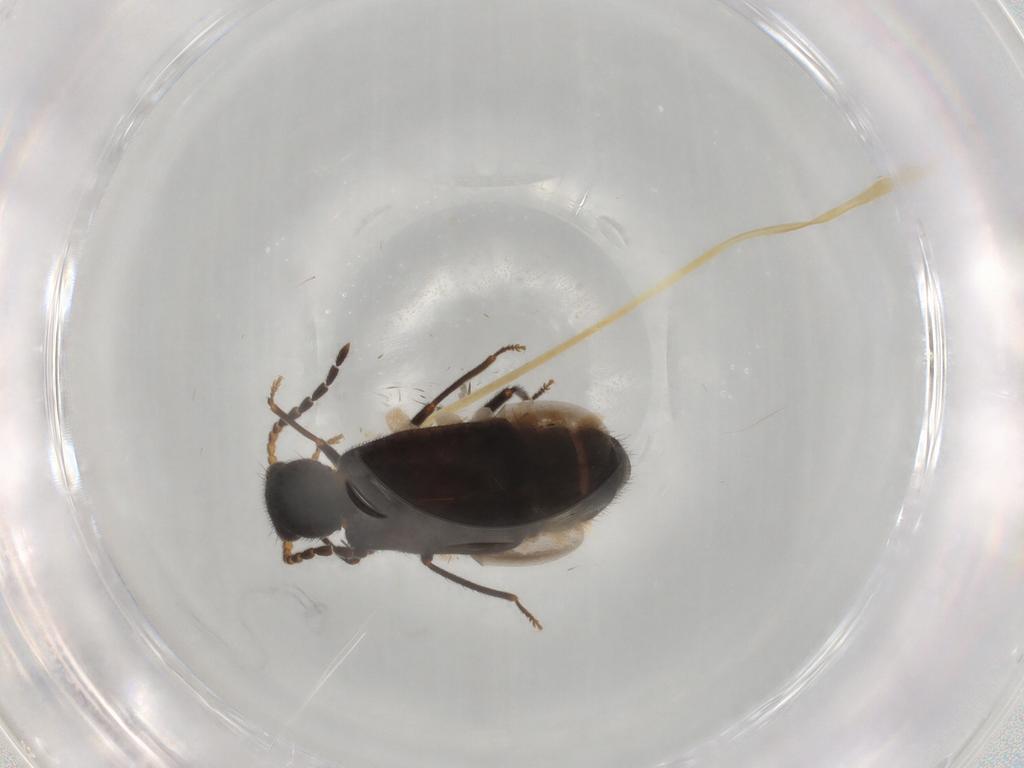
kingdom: Animalia
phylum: Arthropoda
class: Insecta
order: Coleoptera
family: Melyridae
